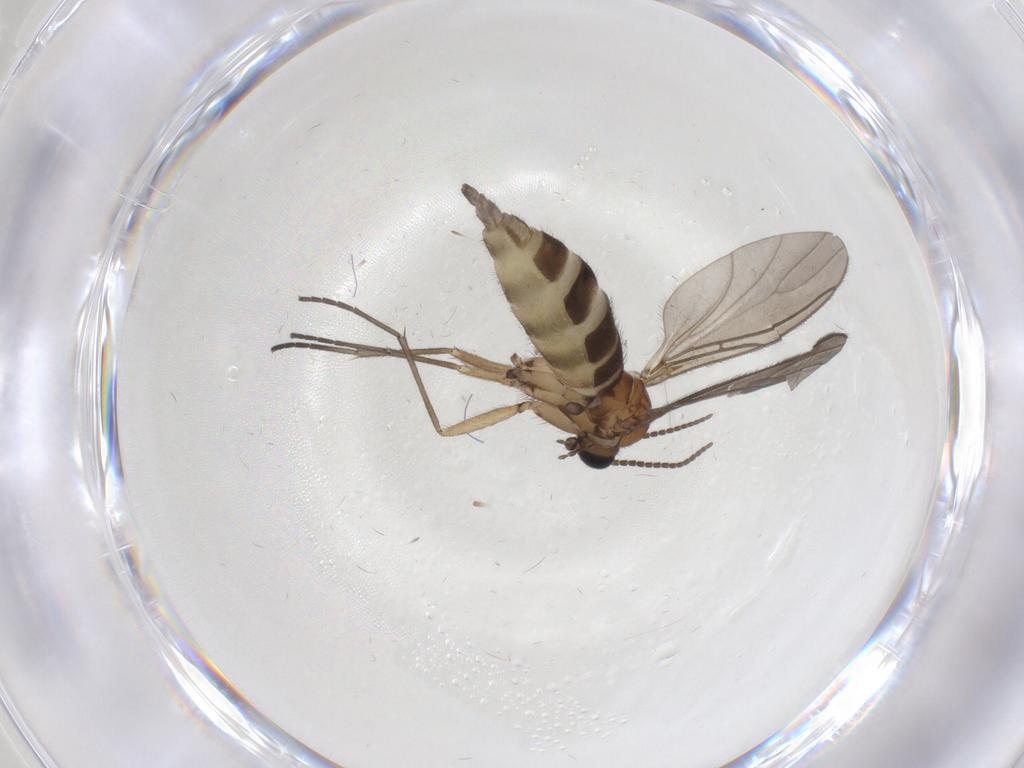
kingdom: Animalia
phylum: Arthropoda
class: Insecta
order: Diptera
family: Sciaridae
